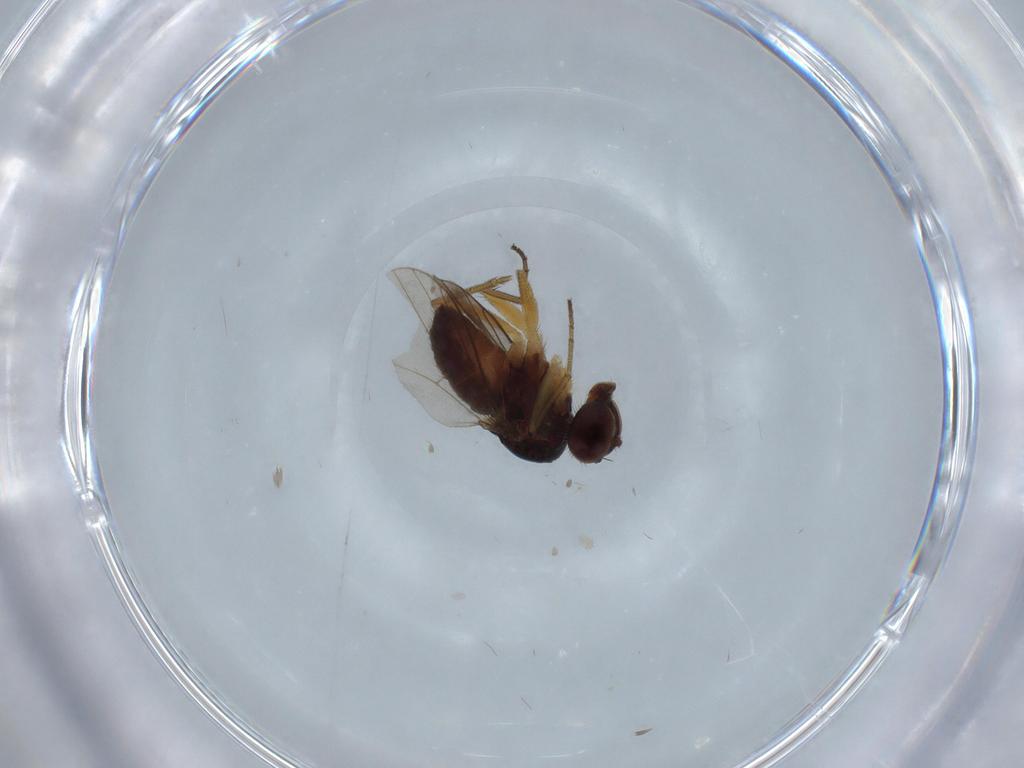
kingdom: Animalia
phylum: Arthropoda
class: Insecta
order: Diptera
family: Dolichopodidae
